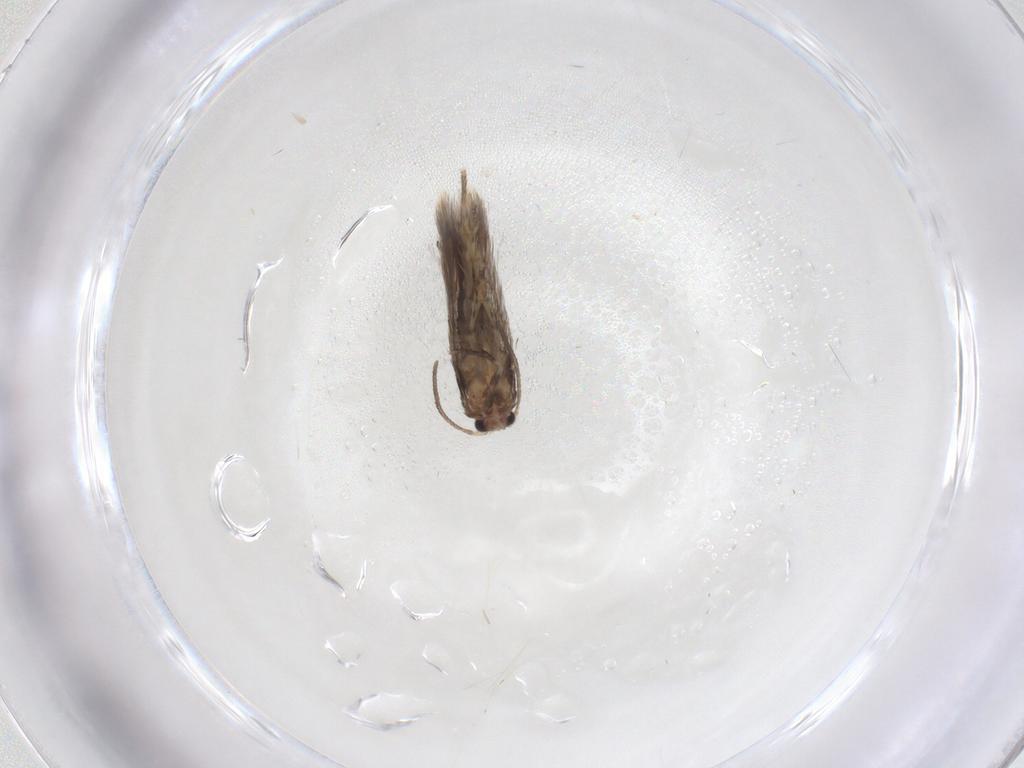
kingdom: Animalia
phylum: Arthropoda
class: Insecta
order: Lepidoptera
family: Nepticulidae
